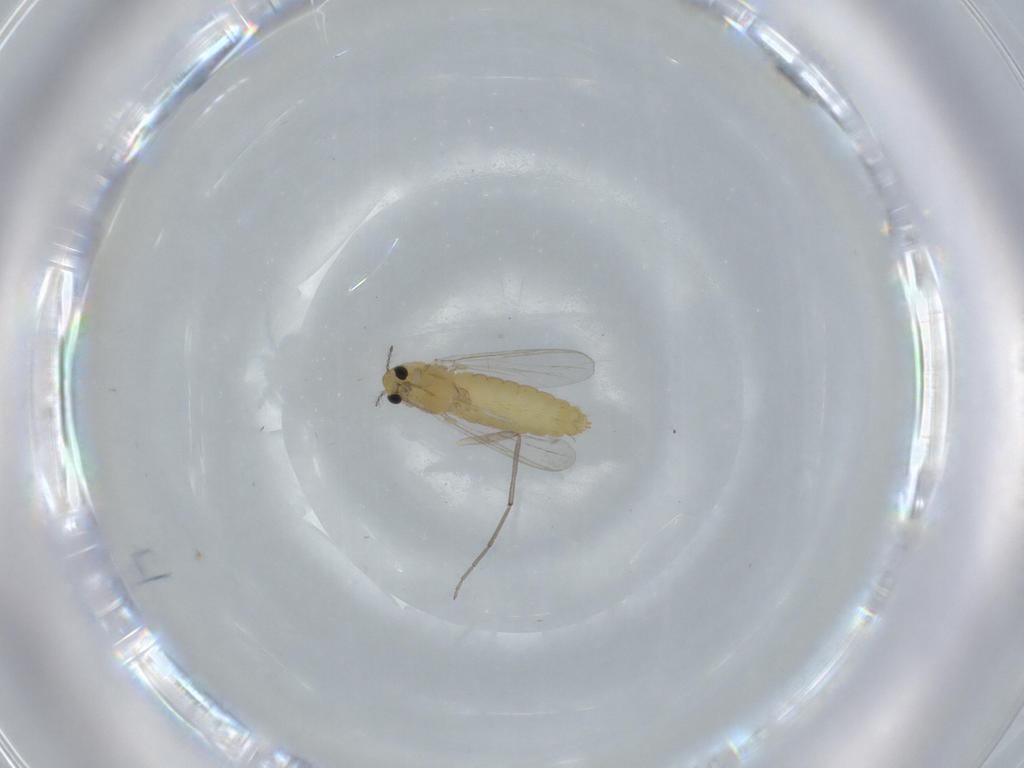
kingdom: Animalia
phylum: Arthropoda
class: Insecta
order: Diptera
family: Chironomidae
